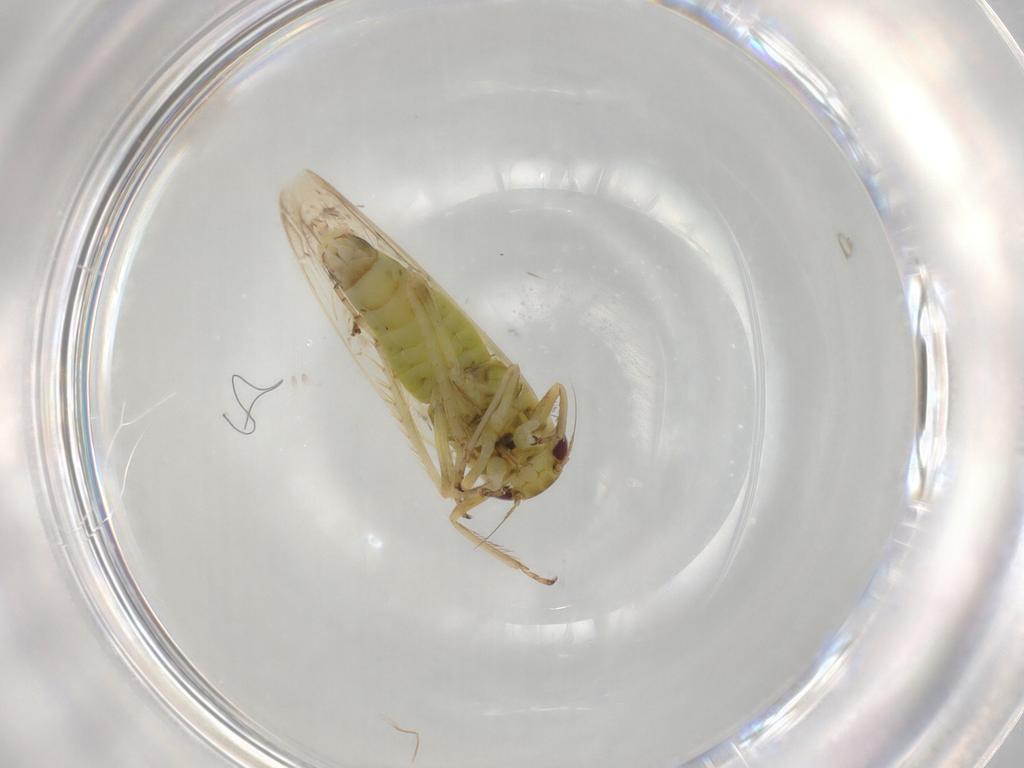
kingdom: Animalia
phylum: Arthropoda
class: Insecta
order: Hemiptera
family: Cicadellidae
